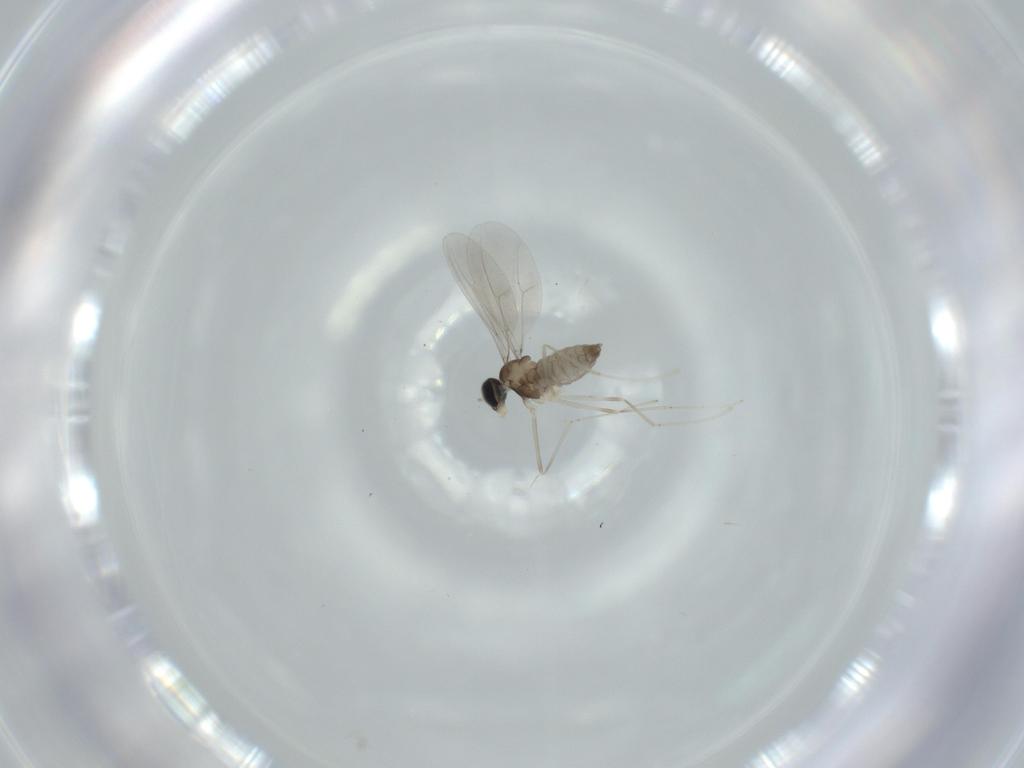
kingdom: Animalia
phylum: Arthropoda
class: Insecta
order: Diptera
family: Cecidomyiidae
